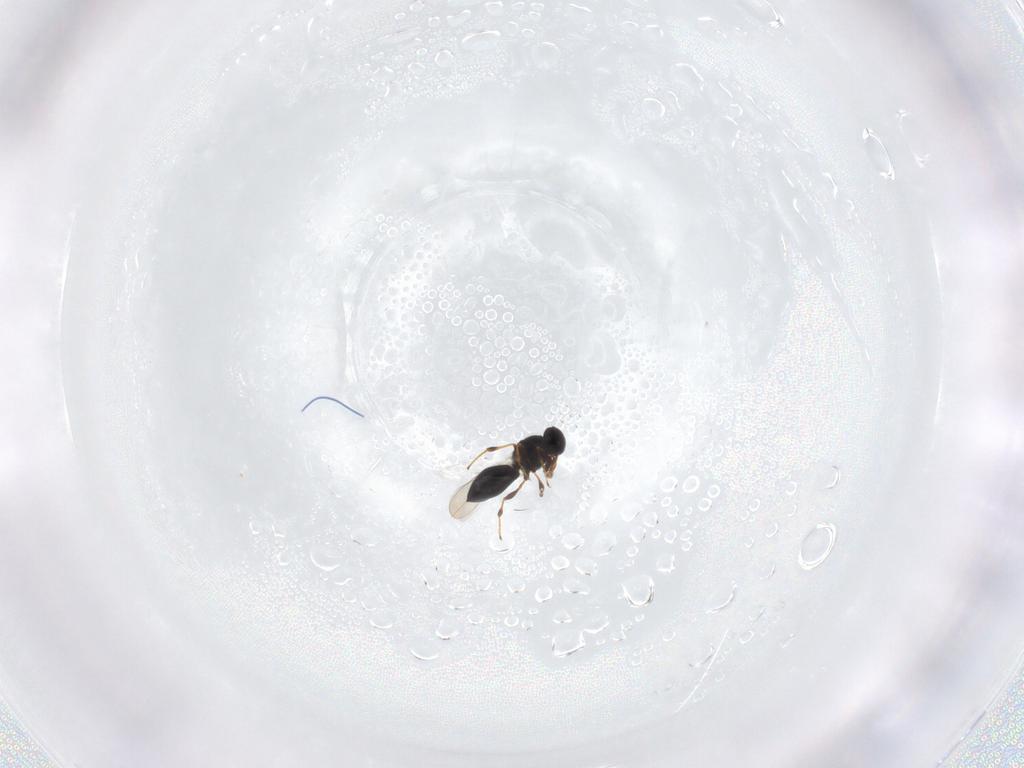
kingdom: Animalia
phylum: Arthropoda
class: Insecta
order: Hymenoptera
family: Platygastridae
